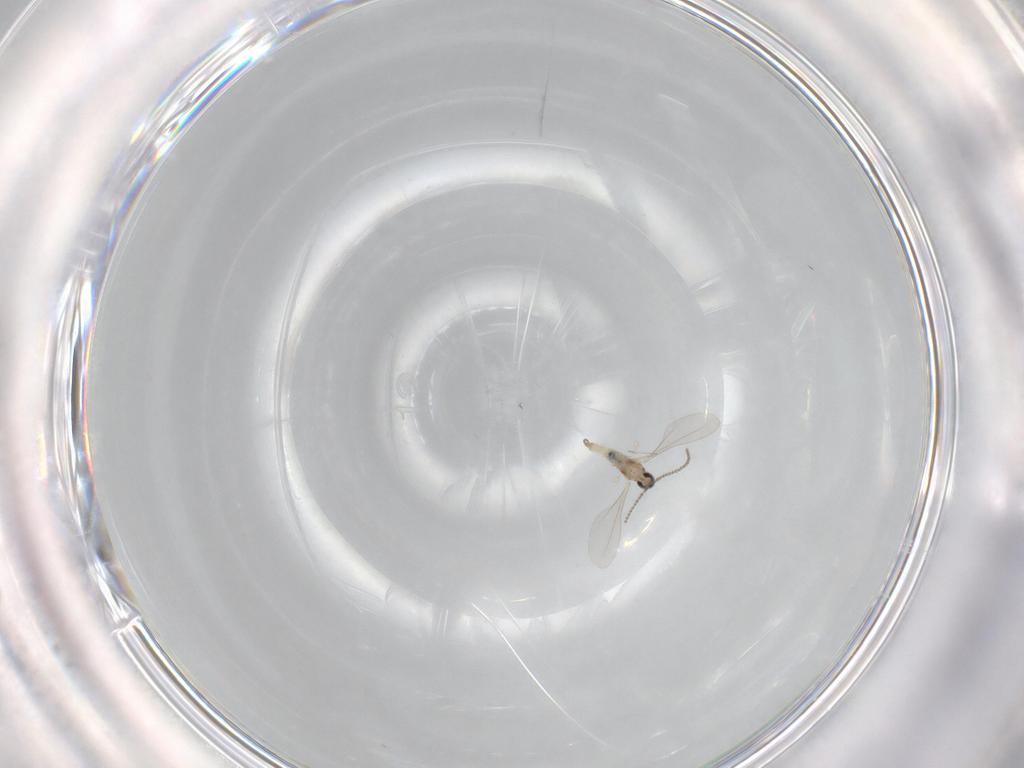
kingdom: Animalia
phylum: Arthropoda
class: Insecta
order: Diptera
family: Cecidomyiidae
